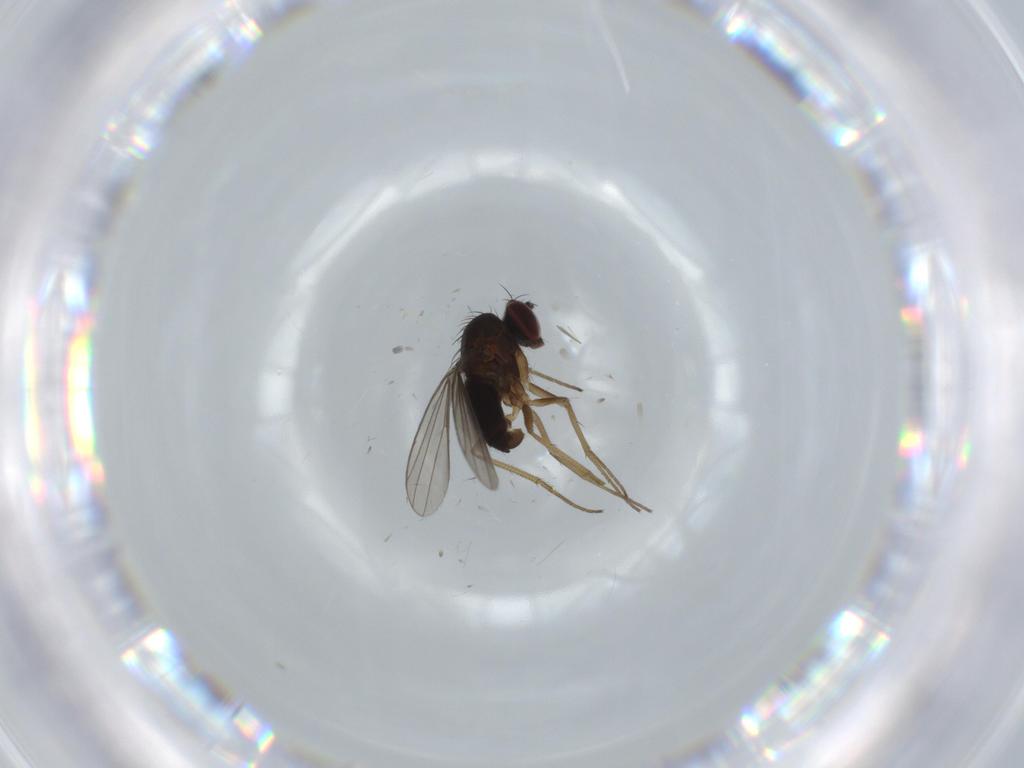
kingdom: Animalia
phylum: Arthropoda
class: Insecta
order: Diptera
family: Dolichopodidae
